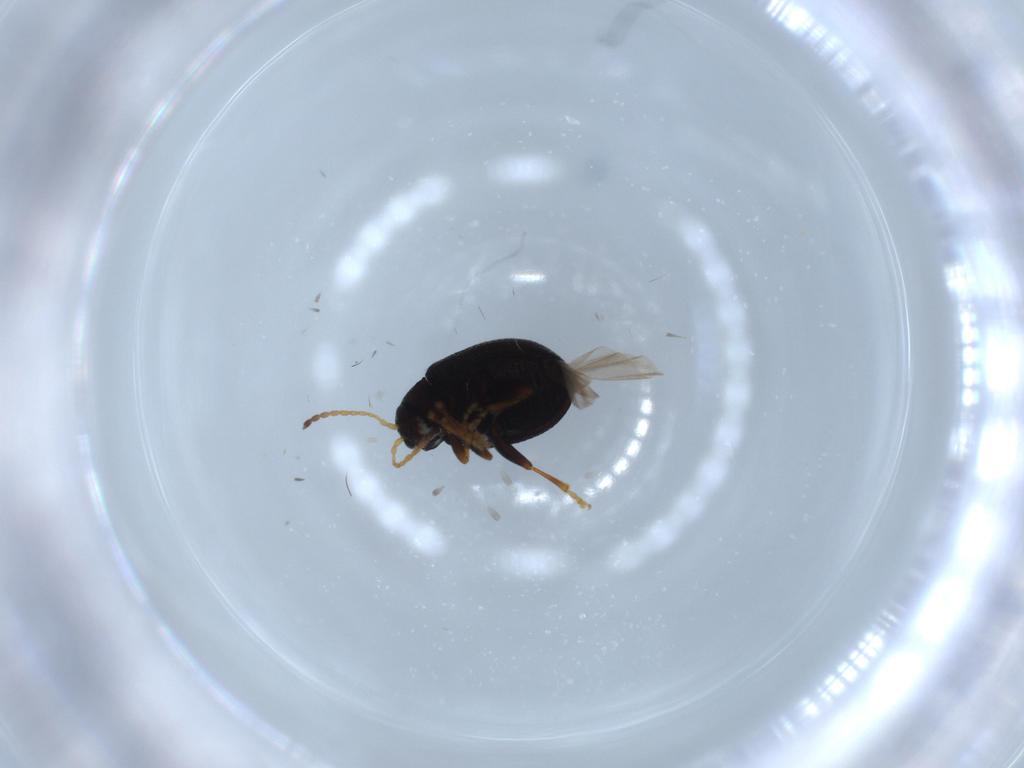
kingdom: Animalia
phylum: Arthropoda
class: Insecta
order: Coleoptera
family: Chrysomelidae
